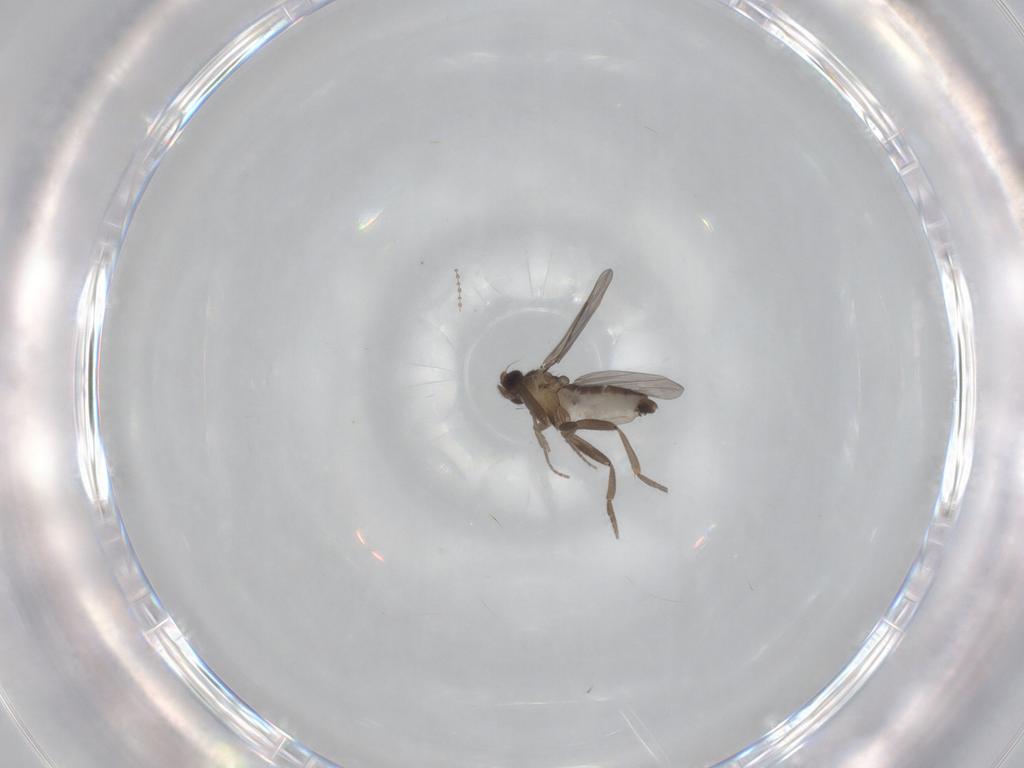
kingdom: Animalia
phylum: Arthropoda
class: Insecta
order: Diptera
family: Cecidomyiidae
